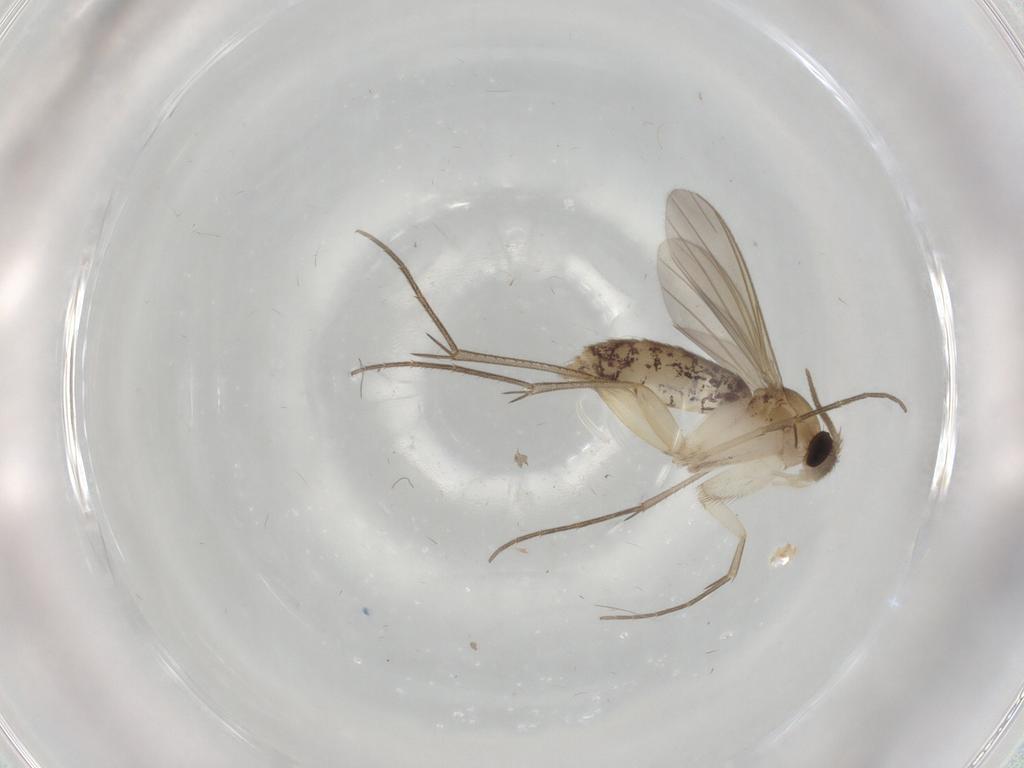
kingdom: Animalia
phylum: Arthropoda
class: Insecta
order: Diptera
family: Mycetophilidae
